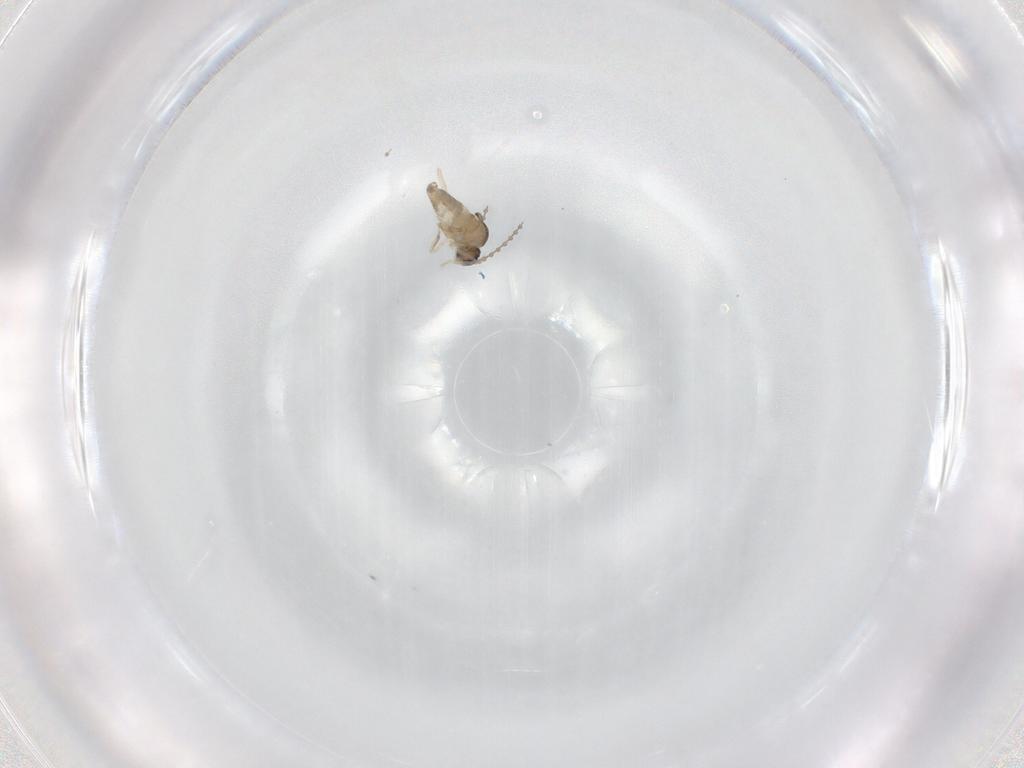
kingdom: Animalia
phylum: Arthropoda
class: Insecta
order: Diptera
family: Cecidomyiidae
